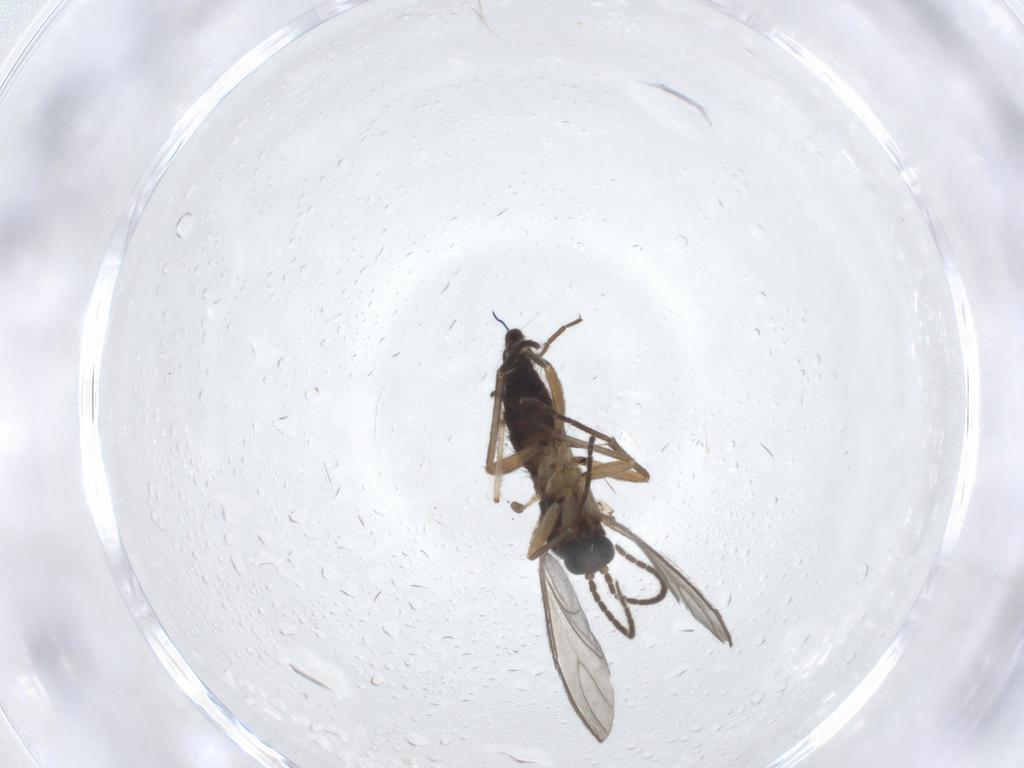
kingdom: Animalia
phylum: Arthropoda
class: Insecta
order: Diptera
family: Sciaridae
